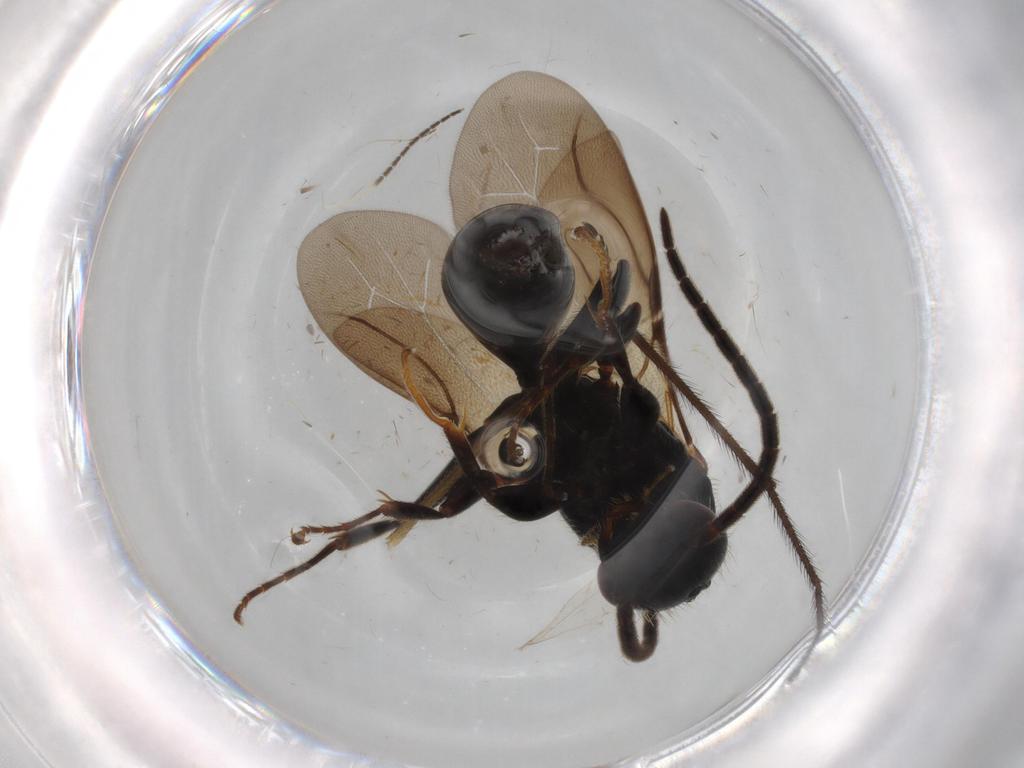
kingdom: Animalia
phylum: Arthropoda
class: Insecta
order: Hymenoptera
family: Bethylidae
